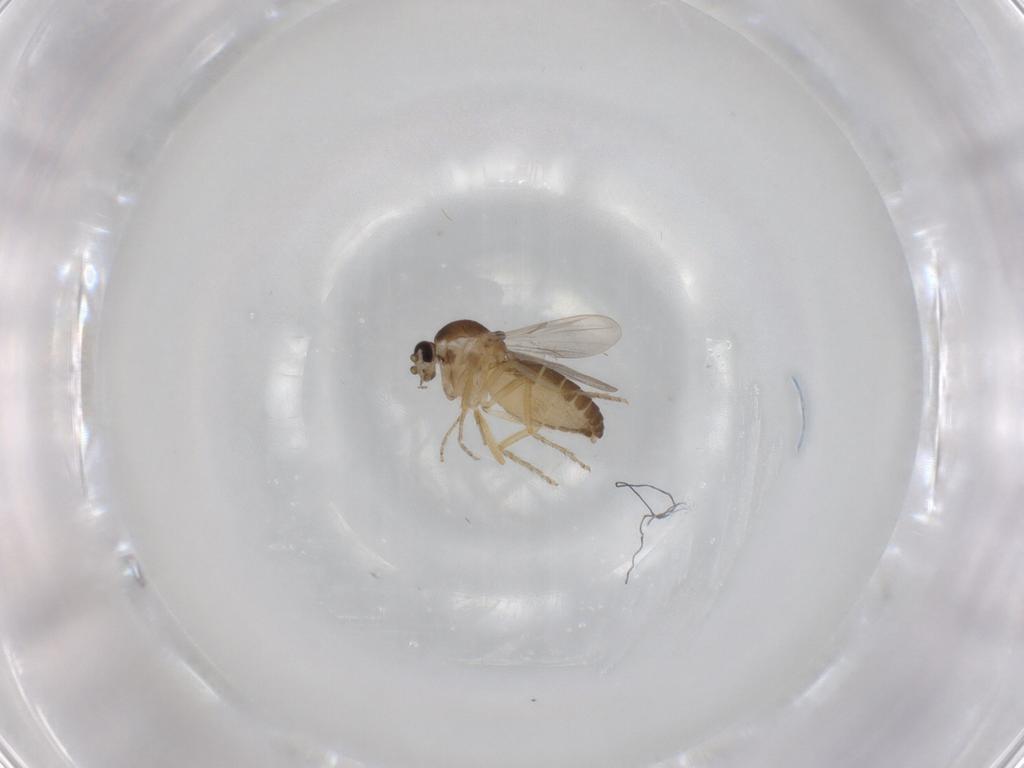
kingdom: Animalia
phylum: Arthropoda
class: Insecta
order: Diptera
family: Ceratopogonidae
